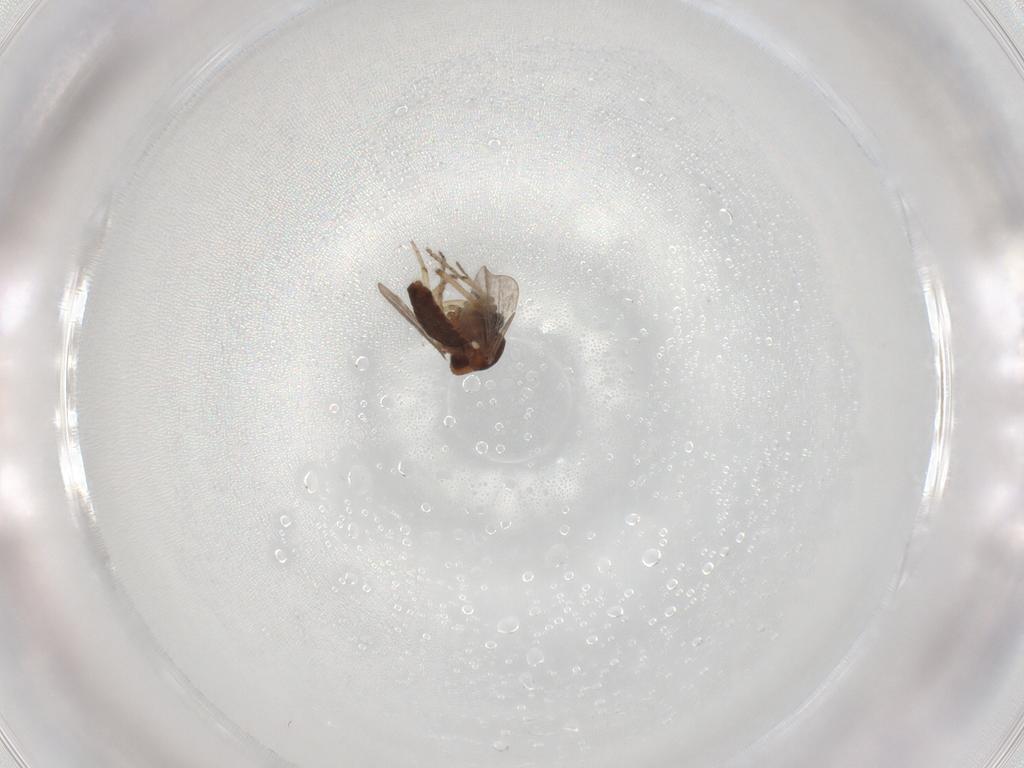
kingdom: Animalia
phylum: Arthropoda
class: Insecta
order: Diptera
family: Ceratopogonidae
